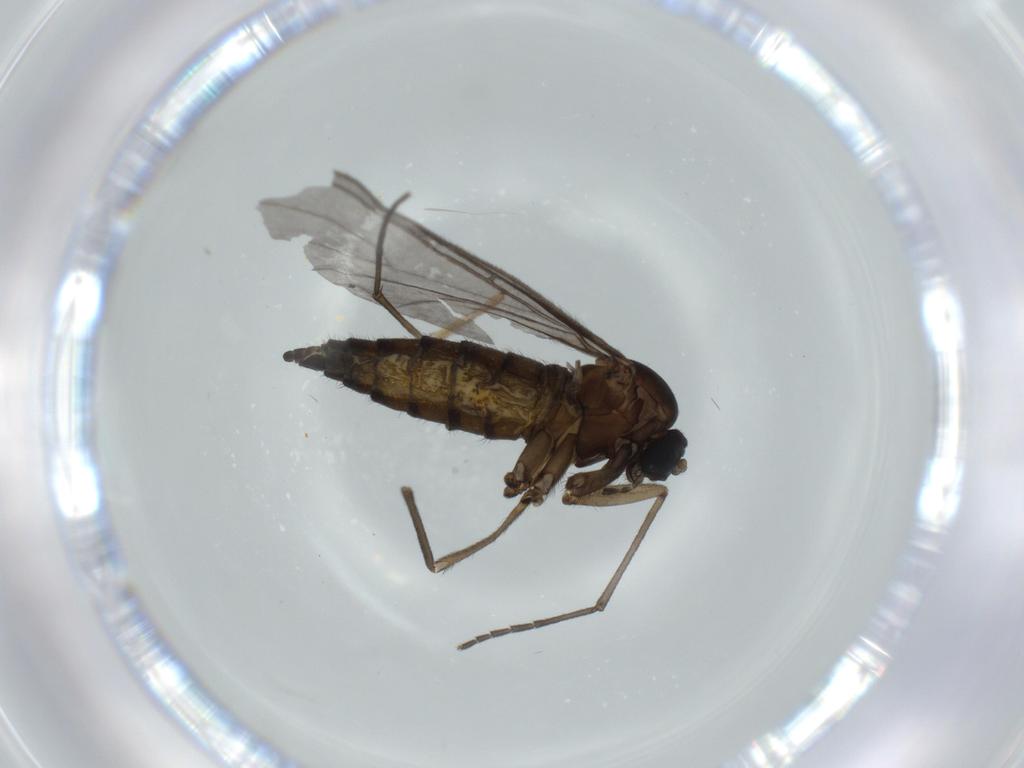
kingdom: Animalia
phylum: Arthropoda
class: Insecta
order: Diptera
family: Sciaridae
